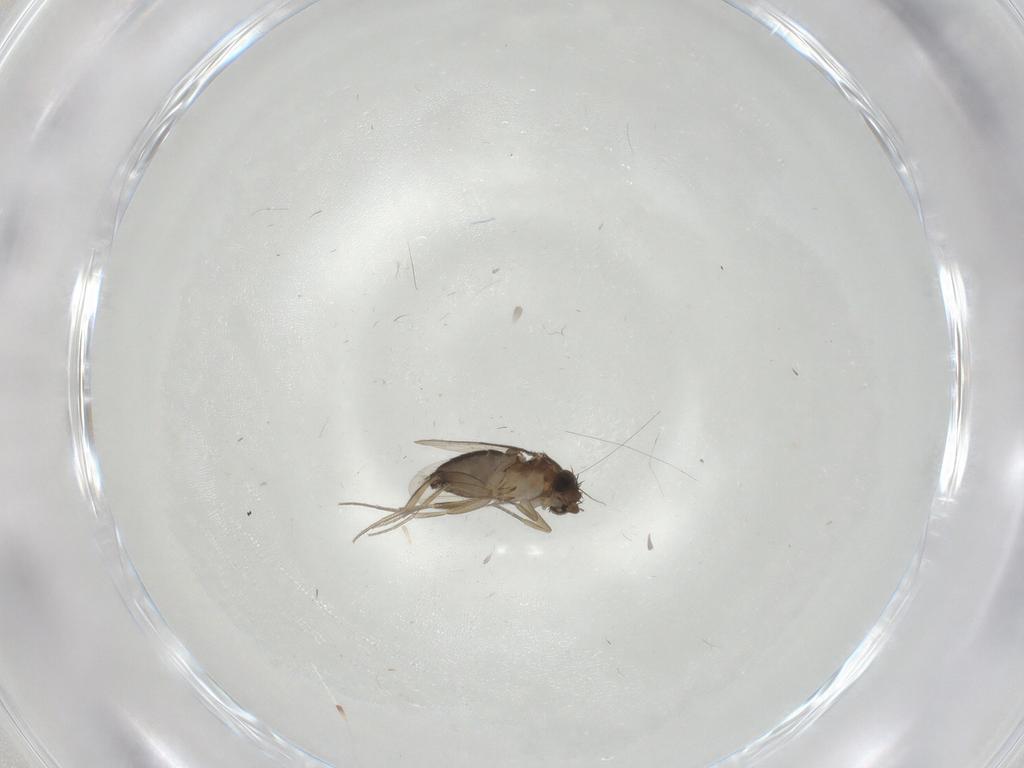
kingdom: Animalia
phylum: Arthropoda
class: Insecta
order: Diptera
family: Phoridae
